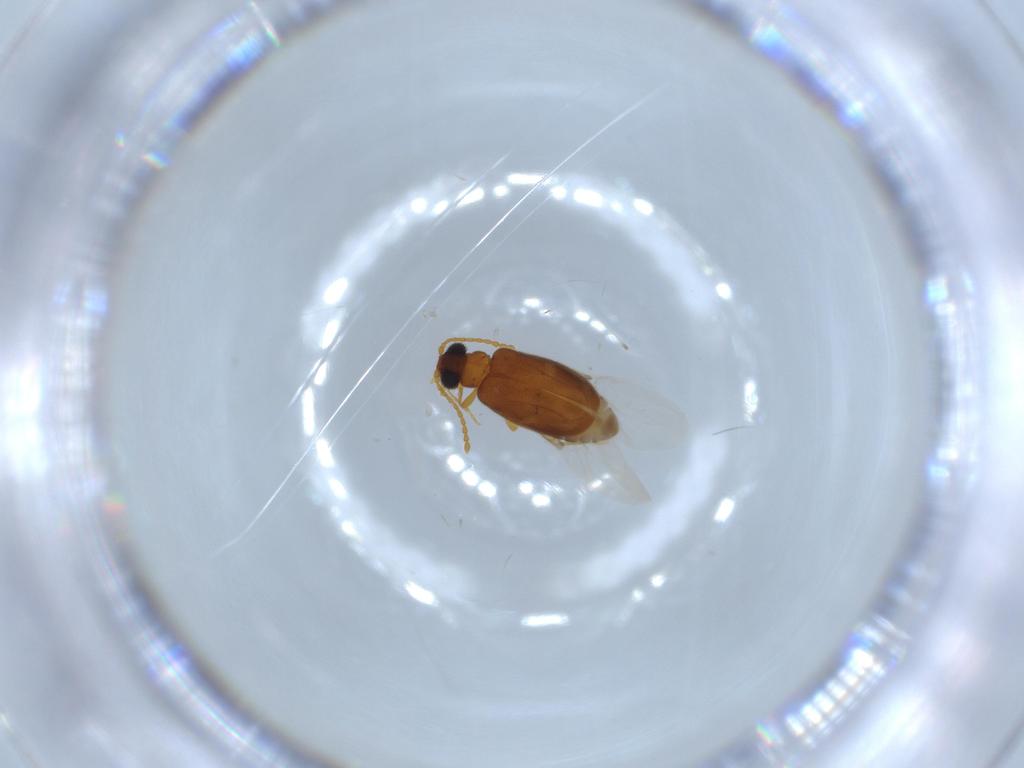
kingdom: Animalia
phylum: Arthropoda
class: Insecta
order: Coleoptera
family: Aderidae
